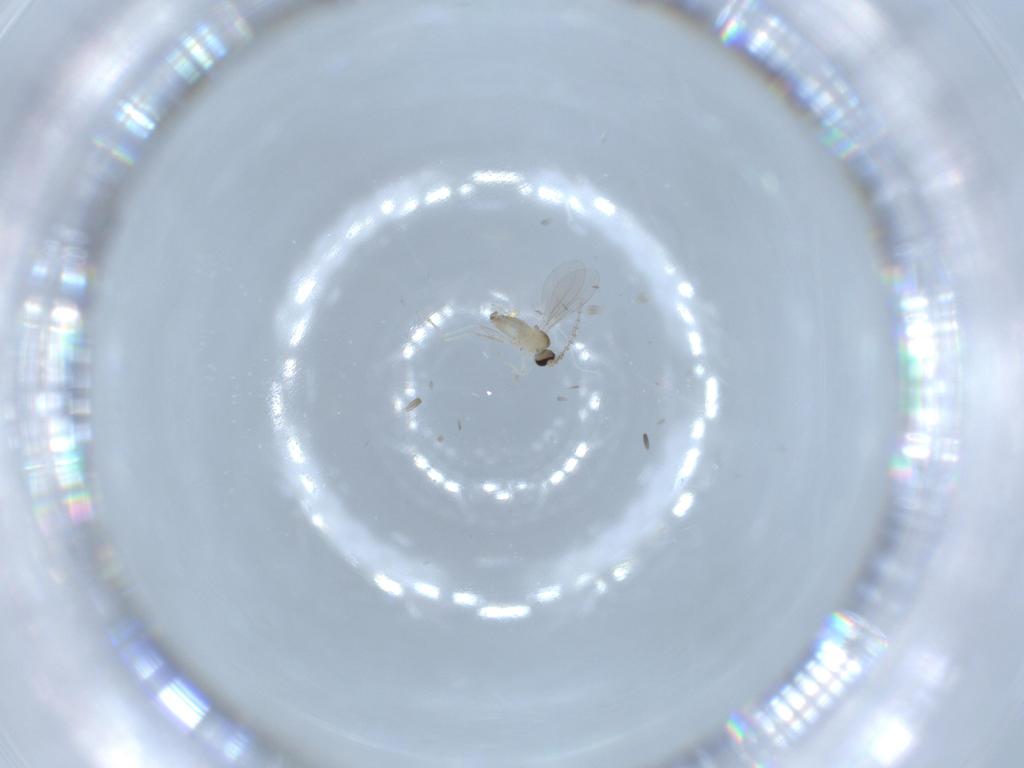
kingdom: Animalia
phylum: Arthropoda
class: Insecta
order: Diptera
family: Cecidomyiidae
